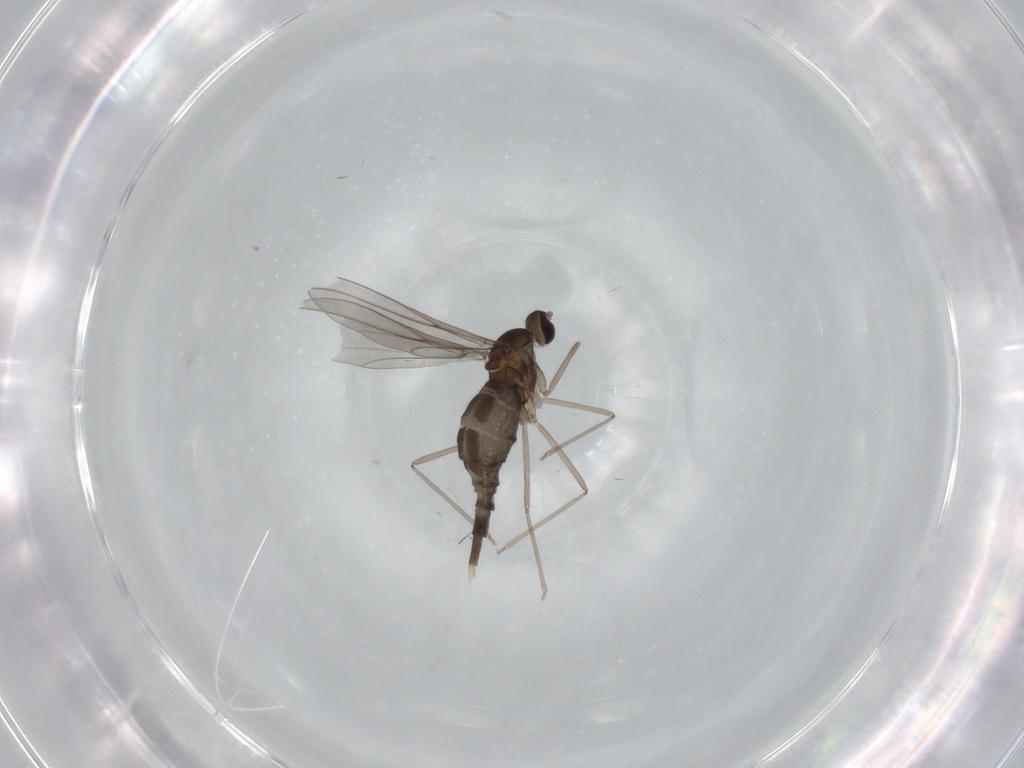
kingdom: Animalia
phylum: Arthropoda
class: Insecta
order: Diptera
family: Cecidomyiidae
